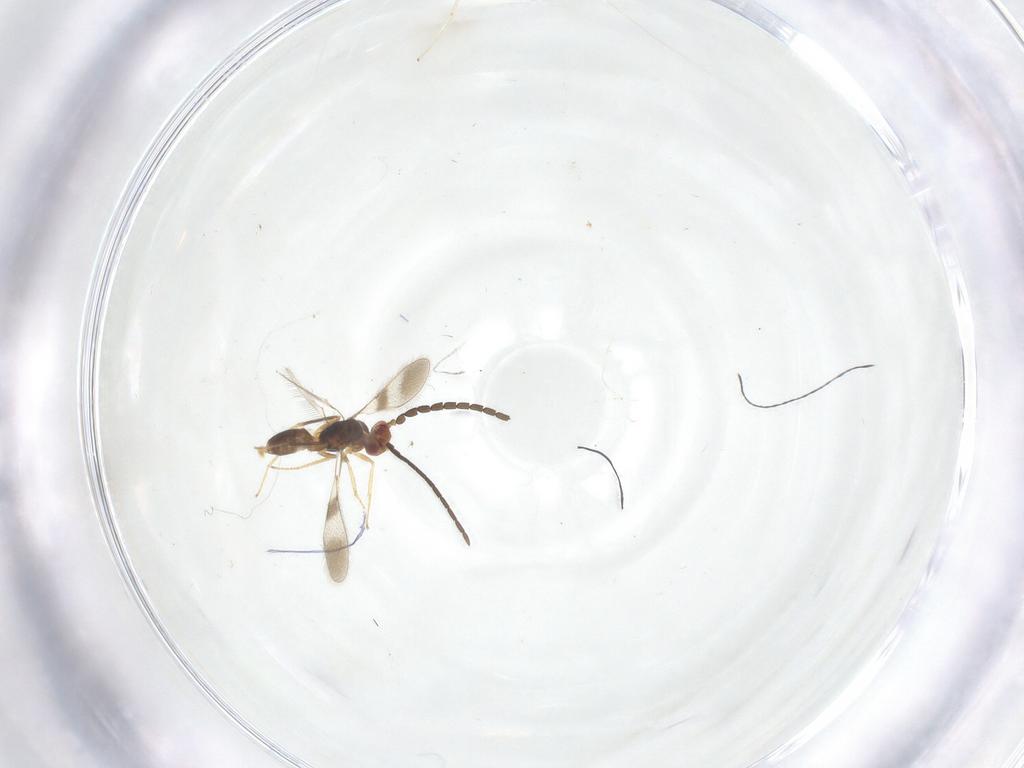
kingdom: Animalia
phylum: Arthropoda
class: Insecta
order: Hymenoptera
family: Mymaridae
